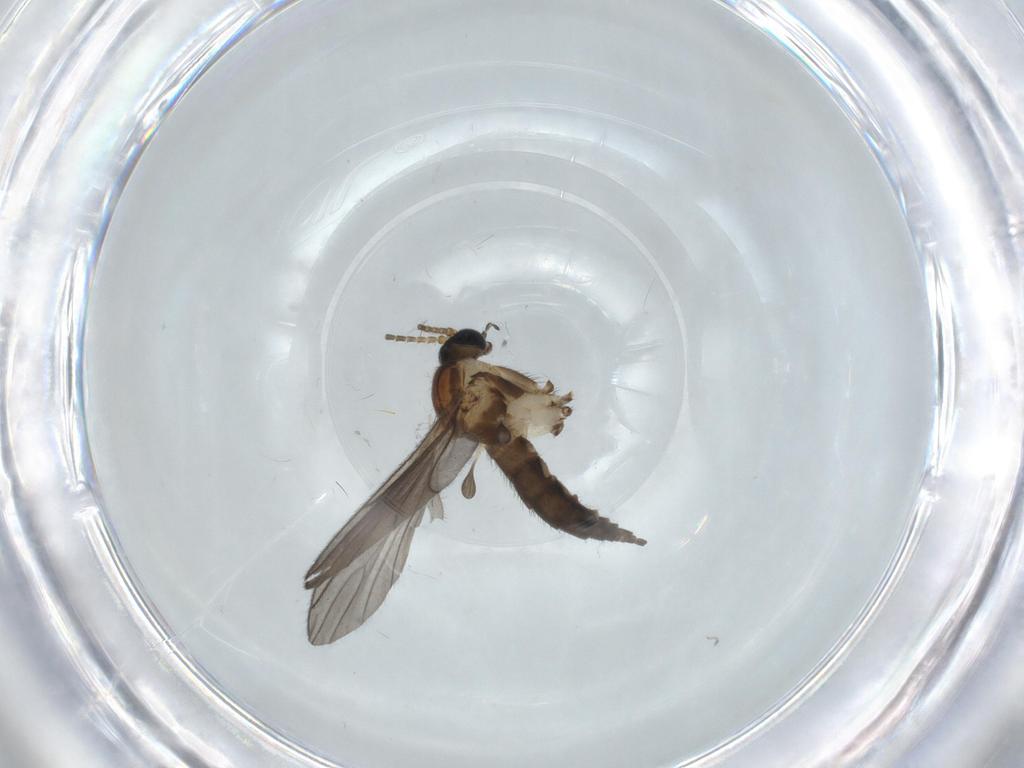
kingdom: Animalia
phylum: Arthropoda
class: Insecta
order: Diptera
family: Sciaridae
